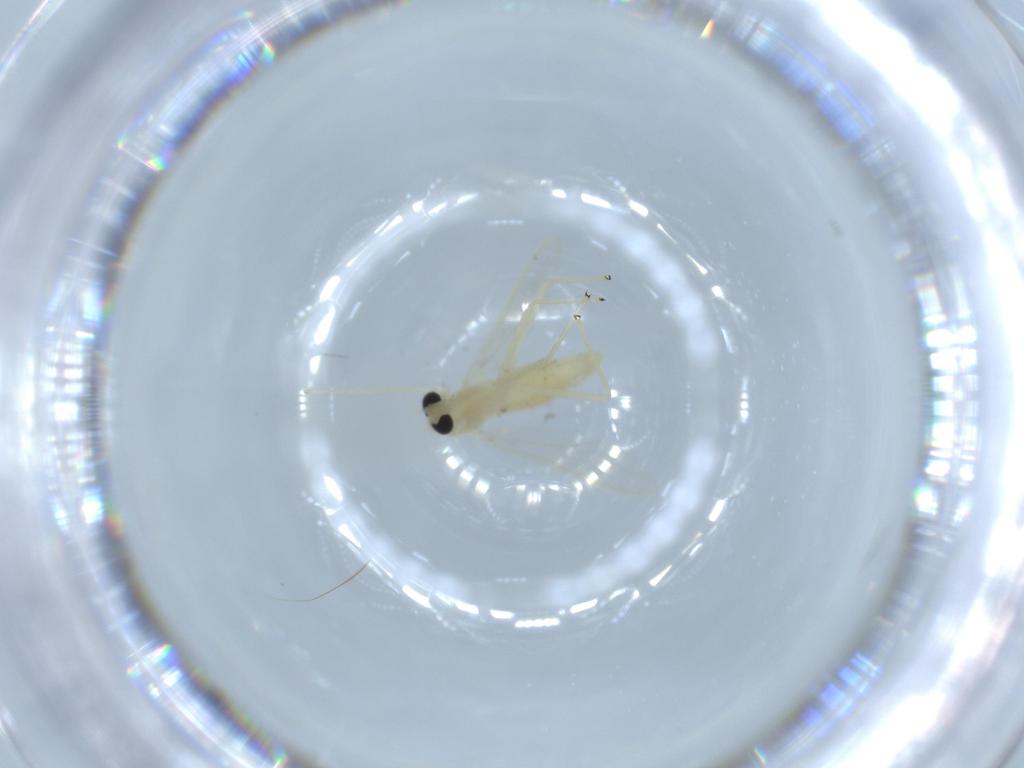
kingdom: Animalia
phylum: Arthropoda
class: Insecta
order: Diptera
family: Chironomidae
